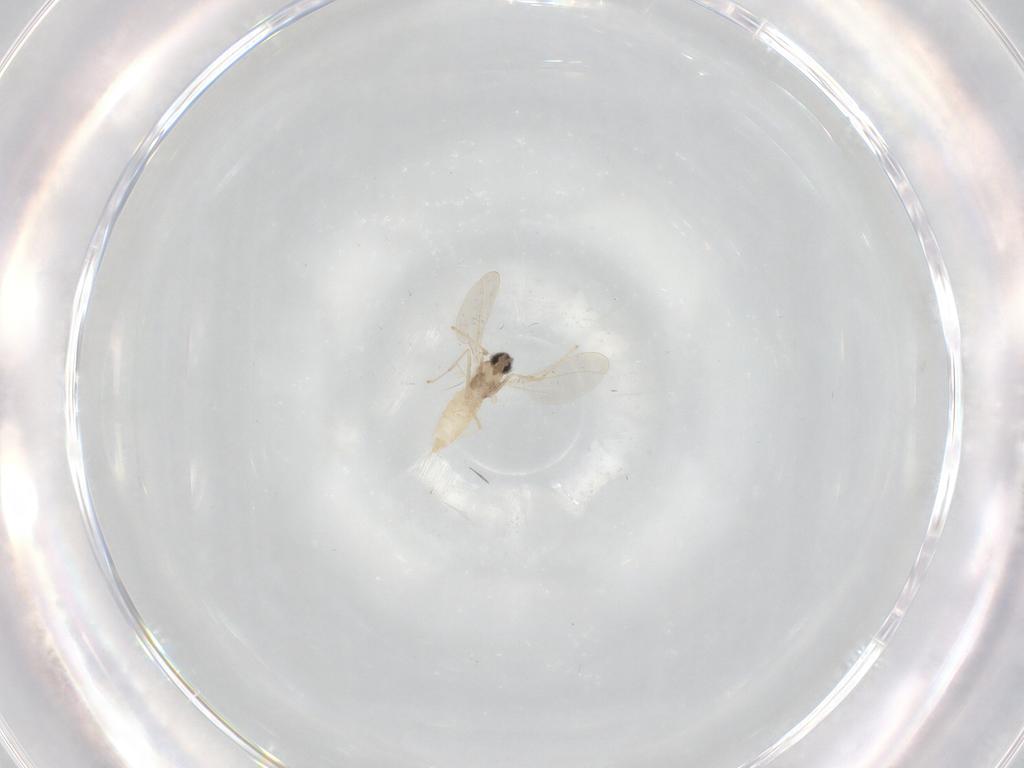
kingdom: Animalia
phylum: Arthropoda
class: Insecta
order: Diptera
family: Cecidomyiidae
